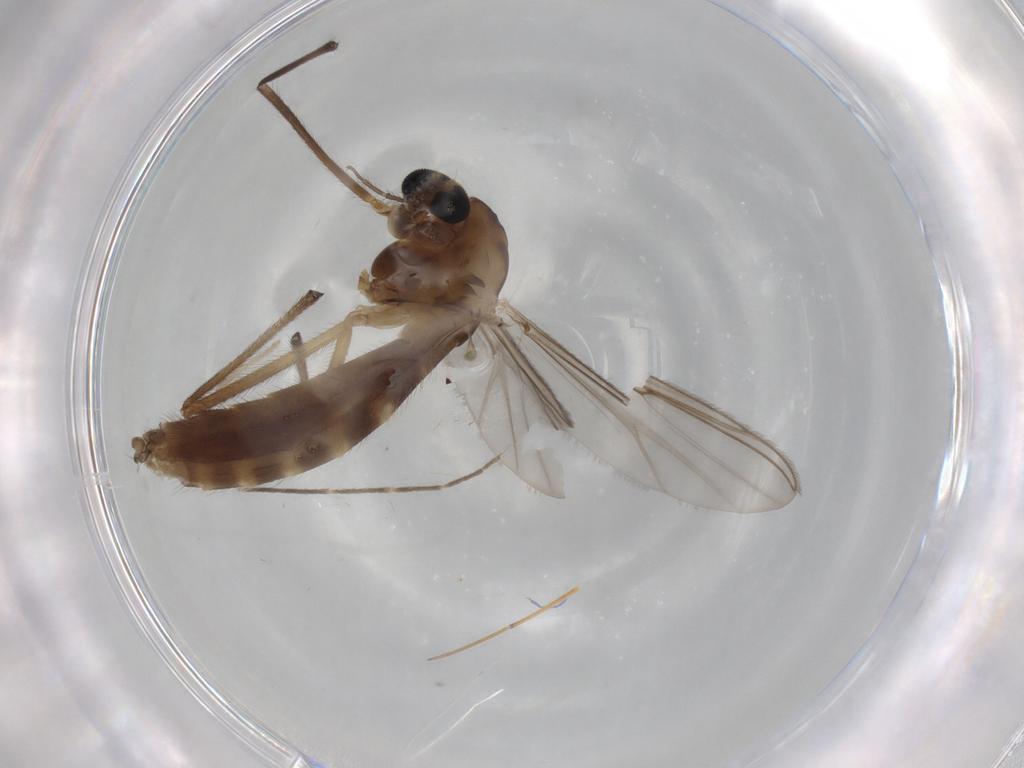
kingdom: Animalia
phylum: Arthropoda
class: Insecta
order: Diptera
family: Chironomidae
